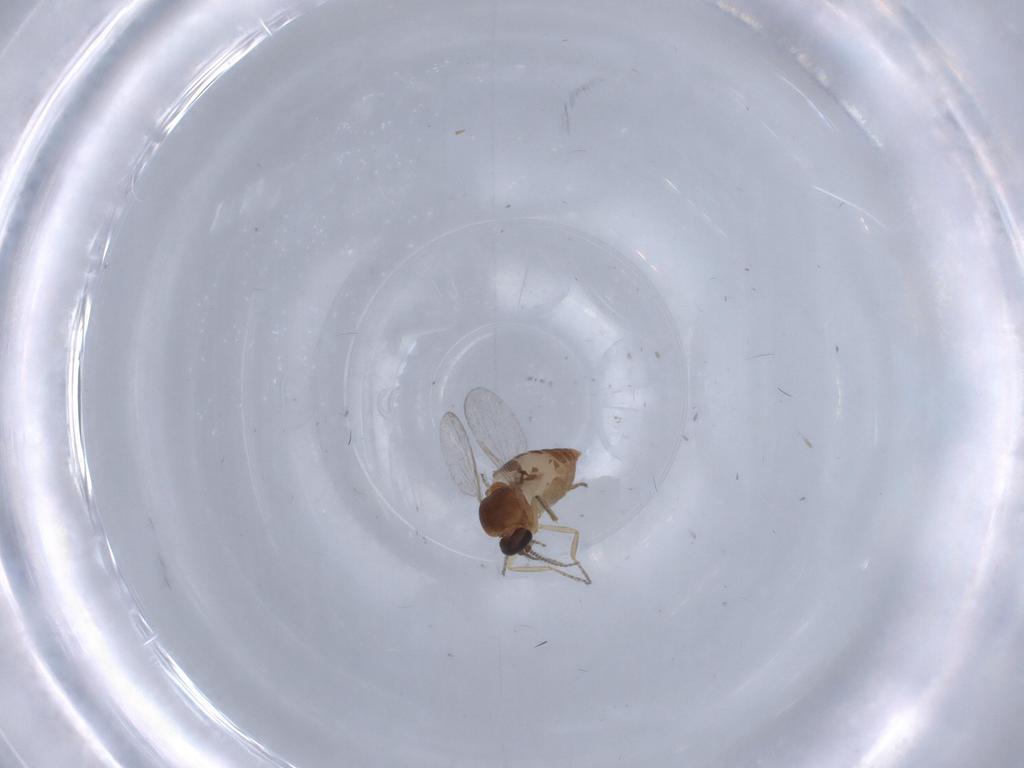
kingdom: Animalia
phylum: Arthropoda
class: Insecta
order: Diptera
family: Ceratopogonidae
